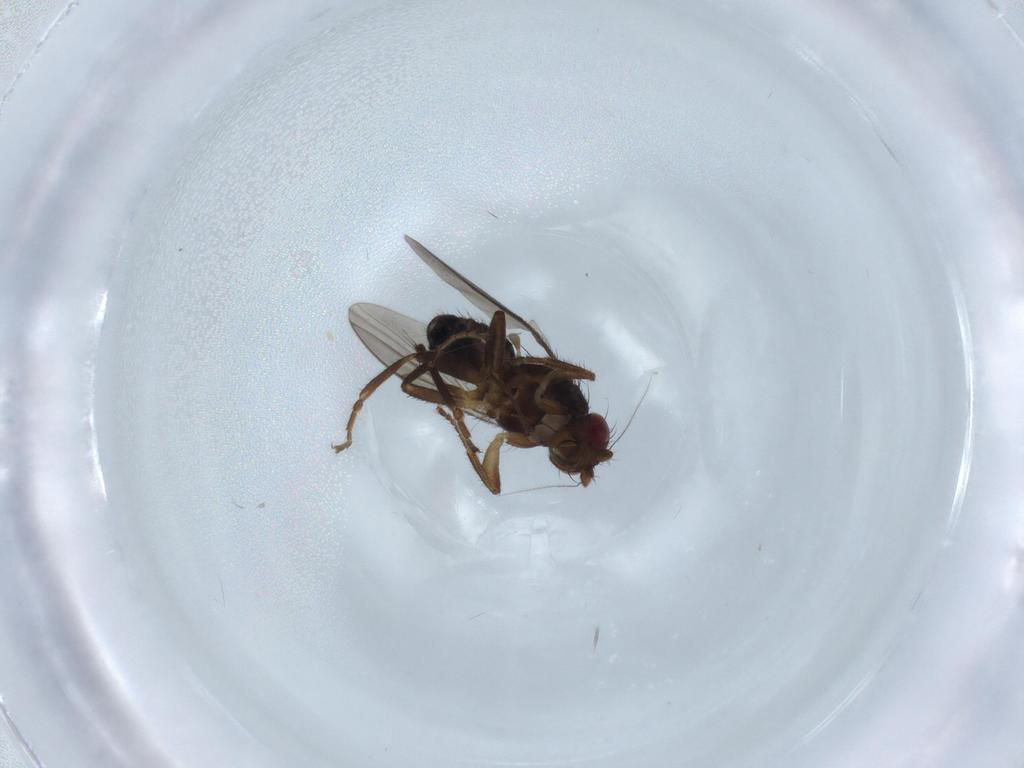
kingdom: Animalia
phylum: Arthropoda
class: Insecta
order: Diptera
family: Sphaeroceridae
